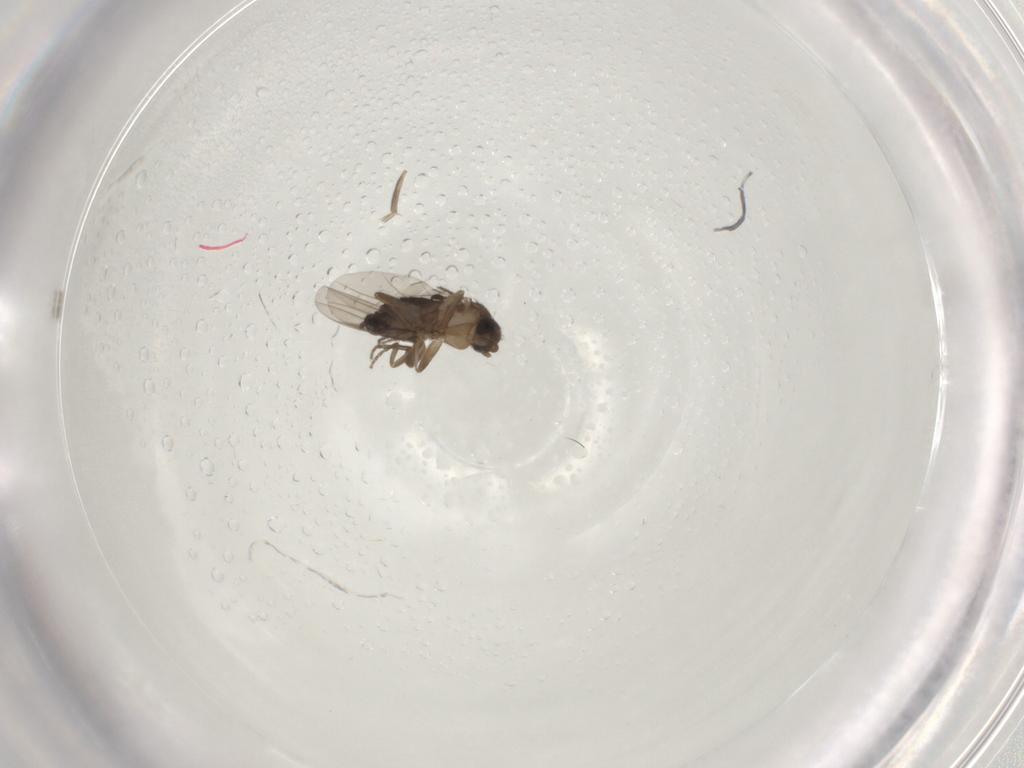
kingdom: Animalia
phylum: Arthropoda
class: Insecta
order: Diptera
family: Phoridae
